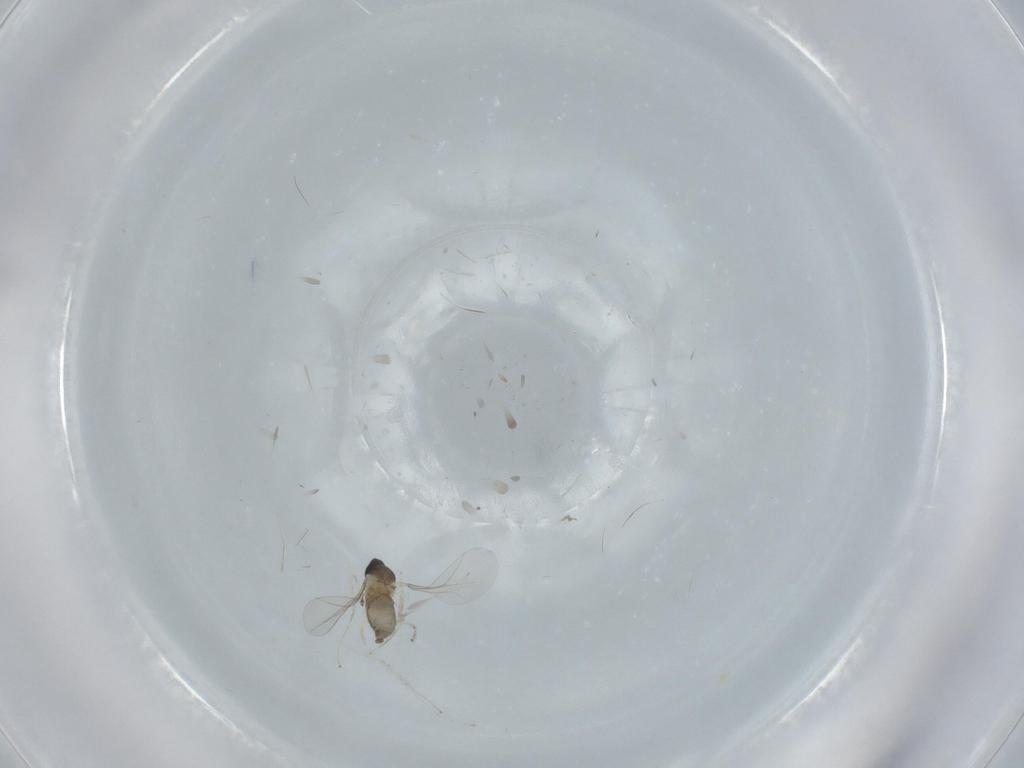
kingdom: Animalia
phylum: Arthropoda
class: Insecta
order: Diptera
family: Cecidomyiidae
